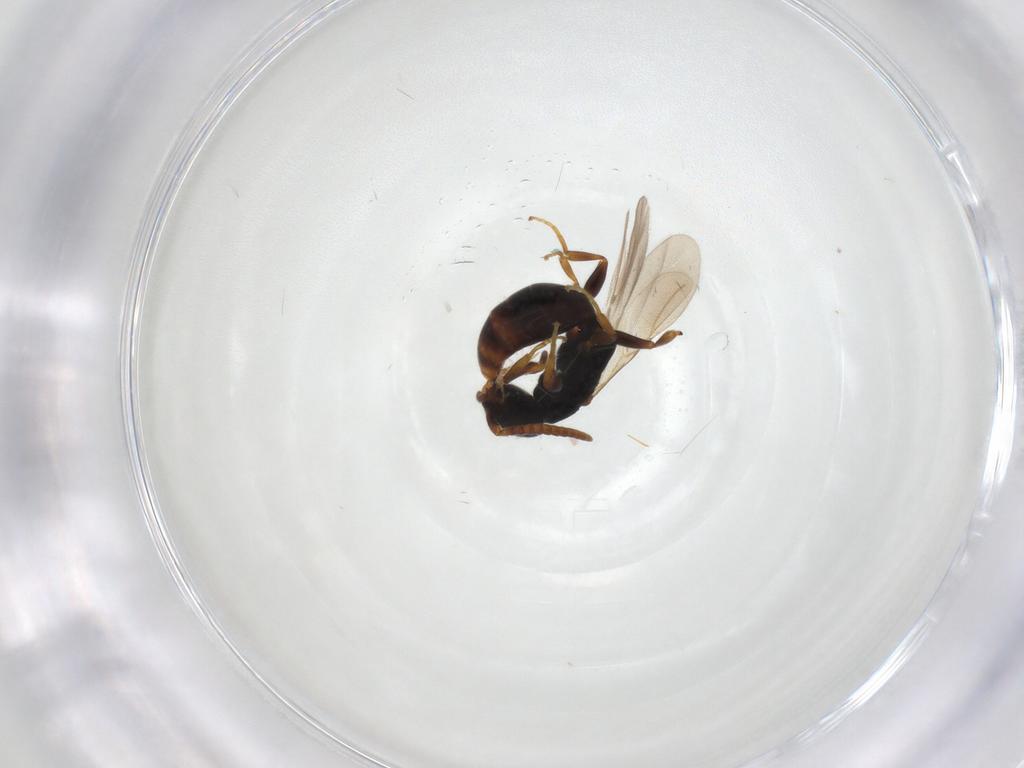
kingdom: Animalia
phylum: Arthropoda
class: Insecta
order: Hymenoptera
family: Bethylidae
